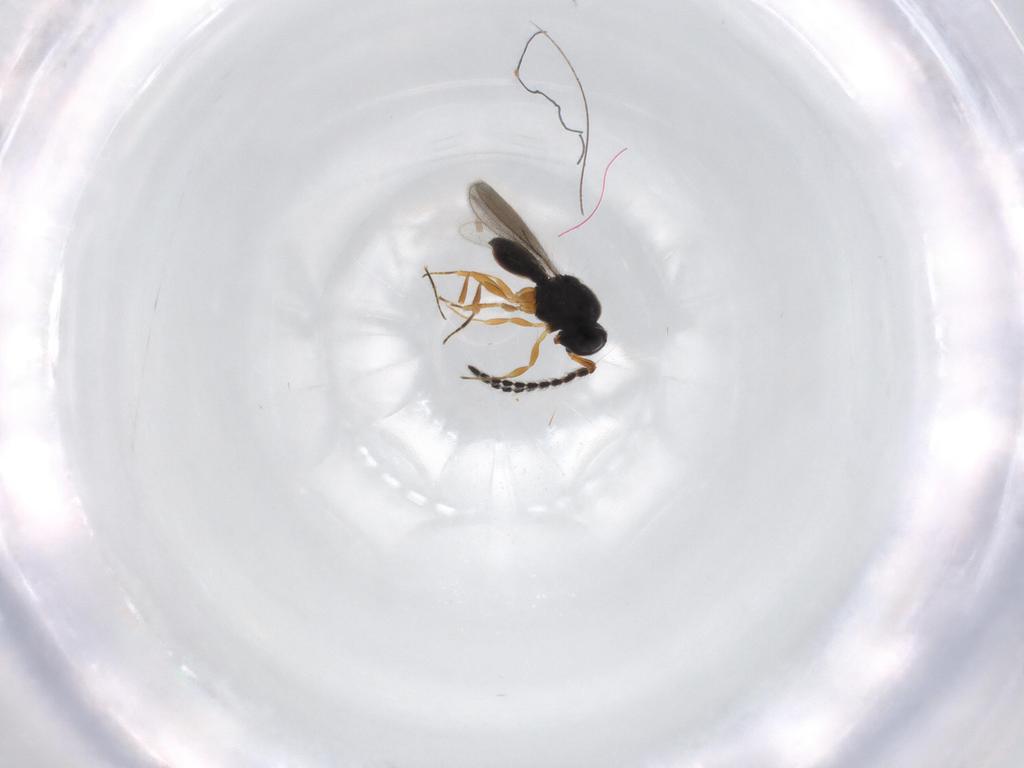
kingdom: Animalia
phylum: Arthropoda
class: Insecta
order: Hymenoptera
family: Scelionidae
